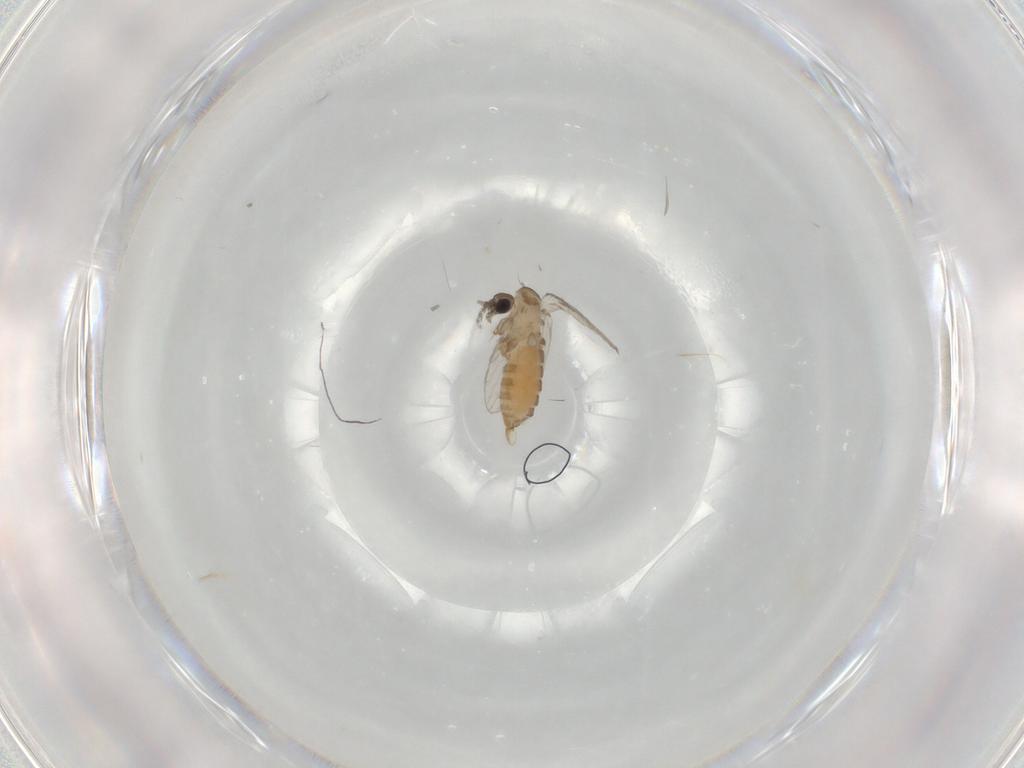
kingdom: Animalia
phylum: Arthropoda
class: Insecta
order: Diptera
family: Psychodidae
